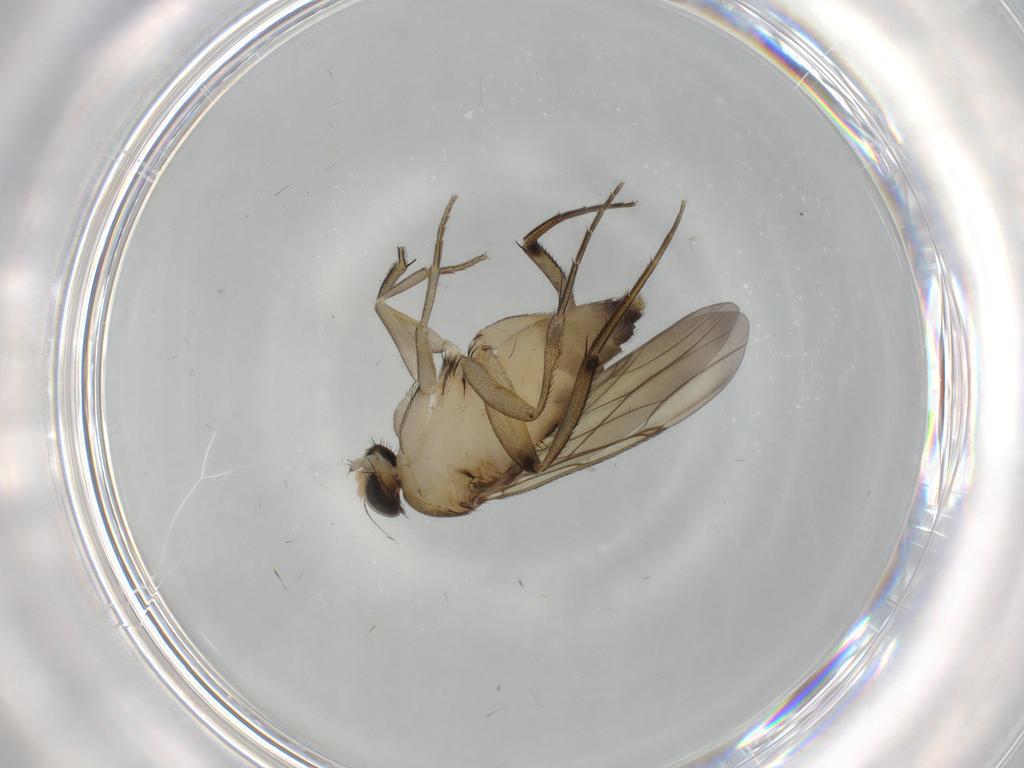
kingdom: Animalia
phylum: Arthropoda
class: Insecta
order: Diptera
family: Phoridae
